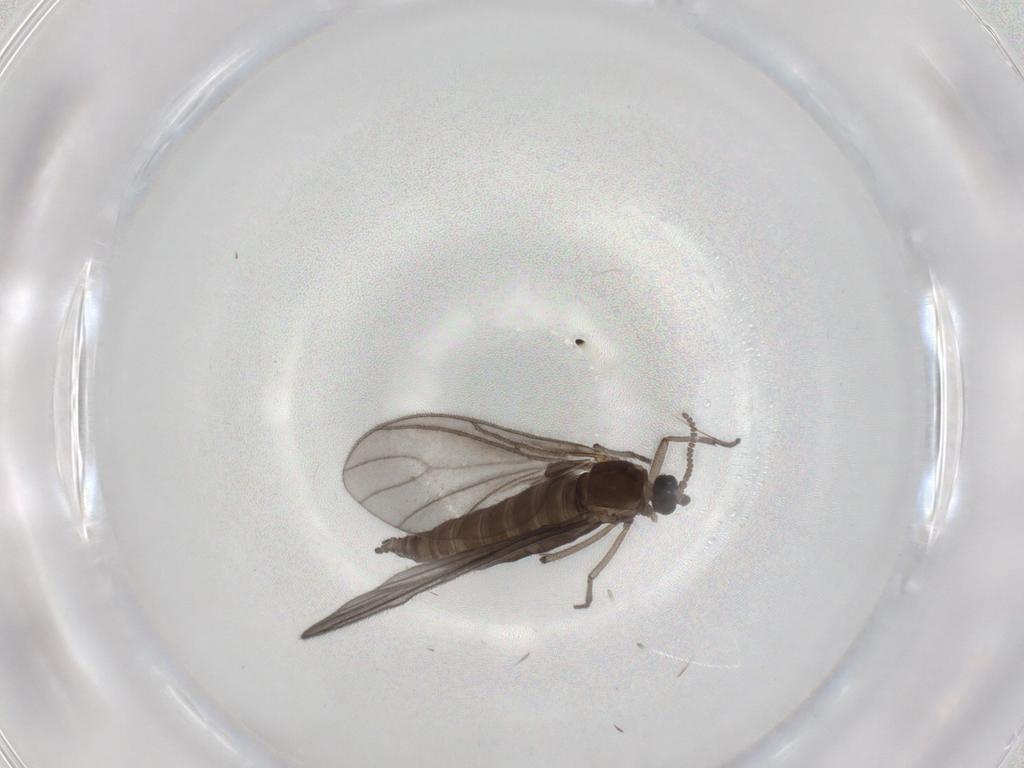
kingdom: Animalia
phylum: Arthropoda
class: Insecta
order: Diptera
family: Sciaridae
